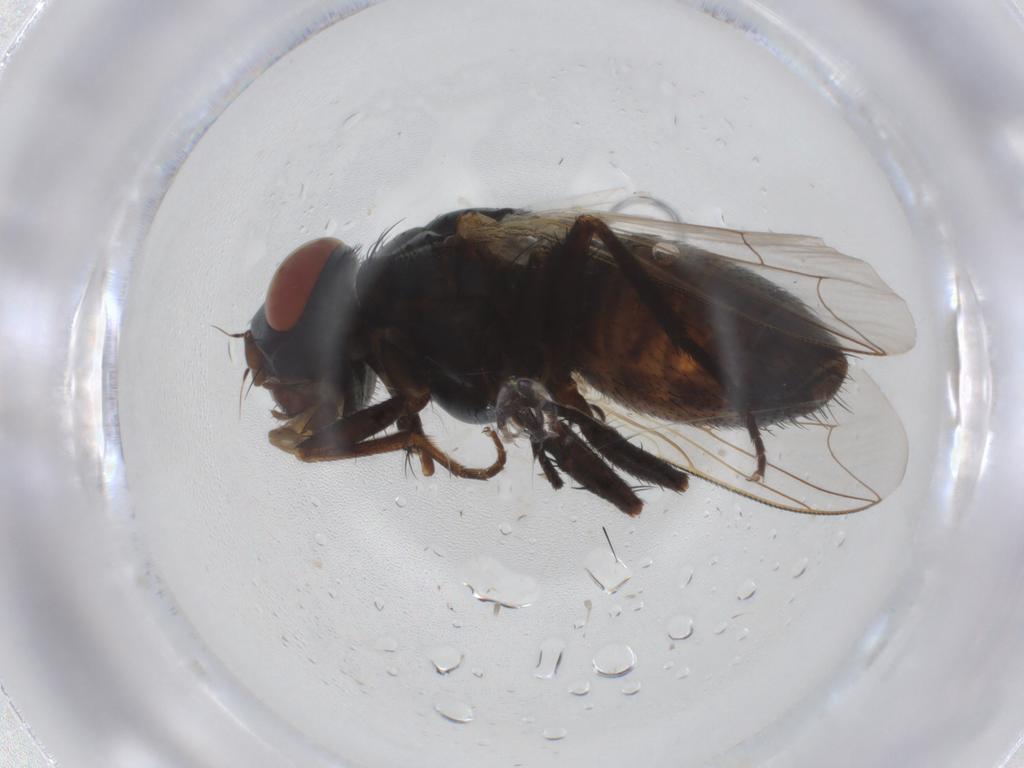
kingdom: Animalia
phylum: Arthropoda
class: Insecta
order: Diptera
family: Sarcophagidae
